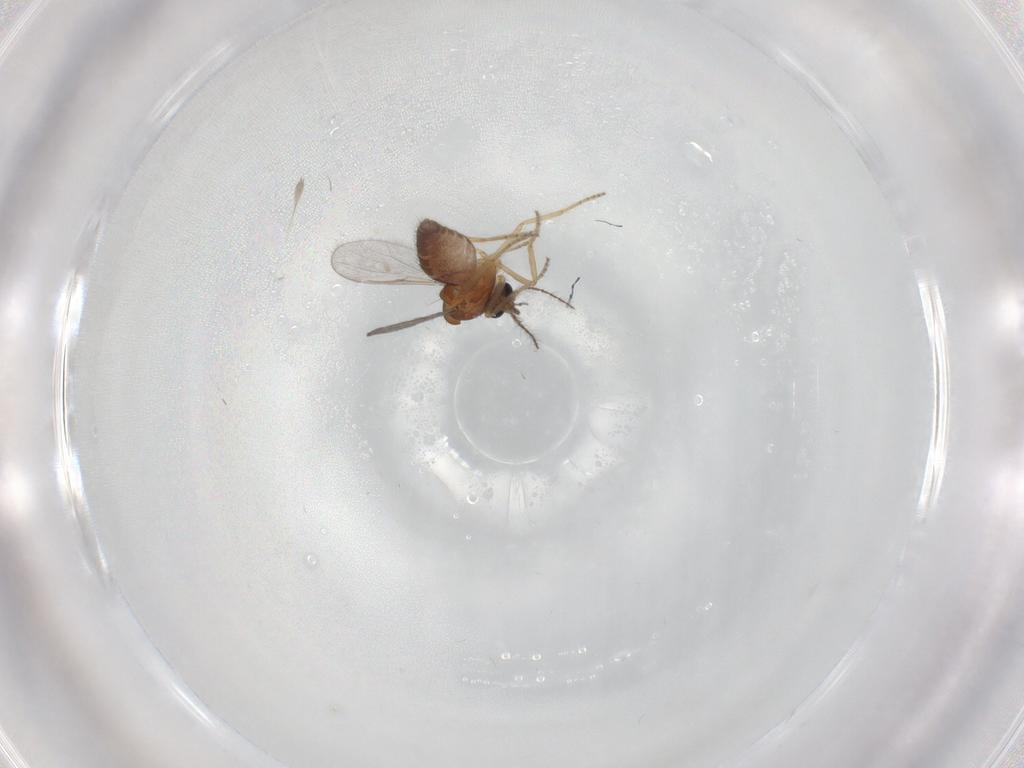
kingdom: Animalia
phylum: Arthropoda
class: Insecta
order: Diptera
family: Ceratopogonidae
